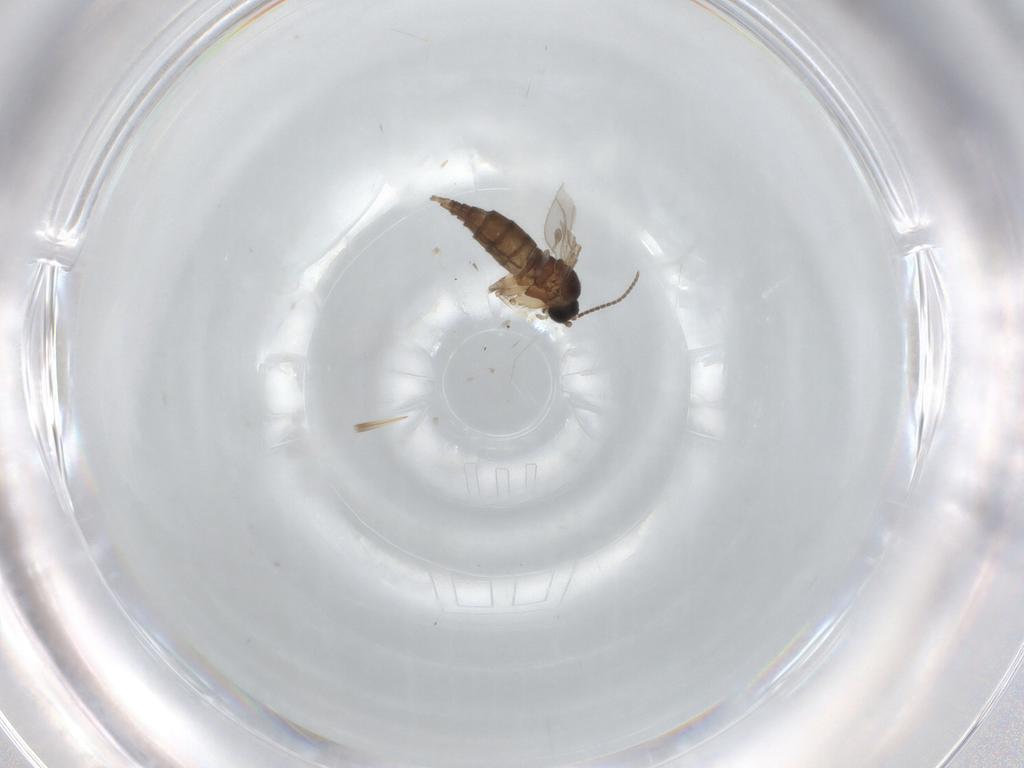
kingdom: Animalia
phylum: Arthropoda
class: Insecta
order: Diptera
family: Sciaridae
